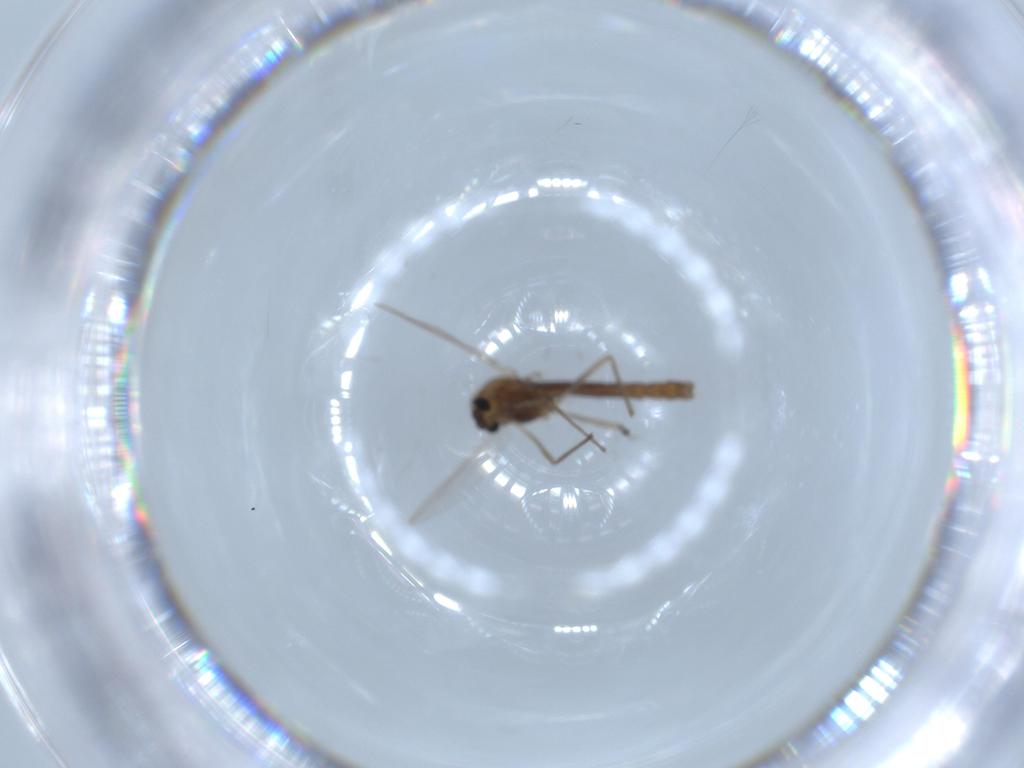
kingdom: Animalia
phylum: Arthropoda
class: Insecta
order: Diptera
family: Chironomidae
